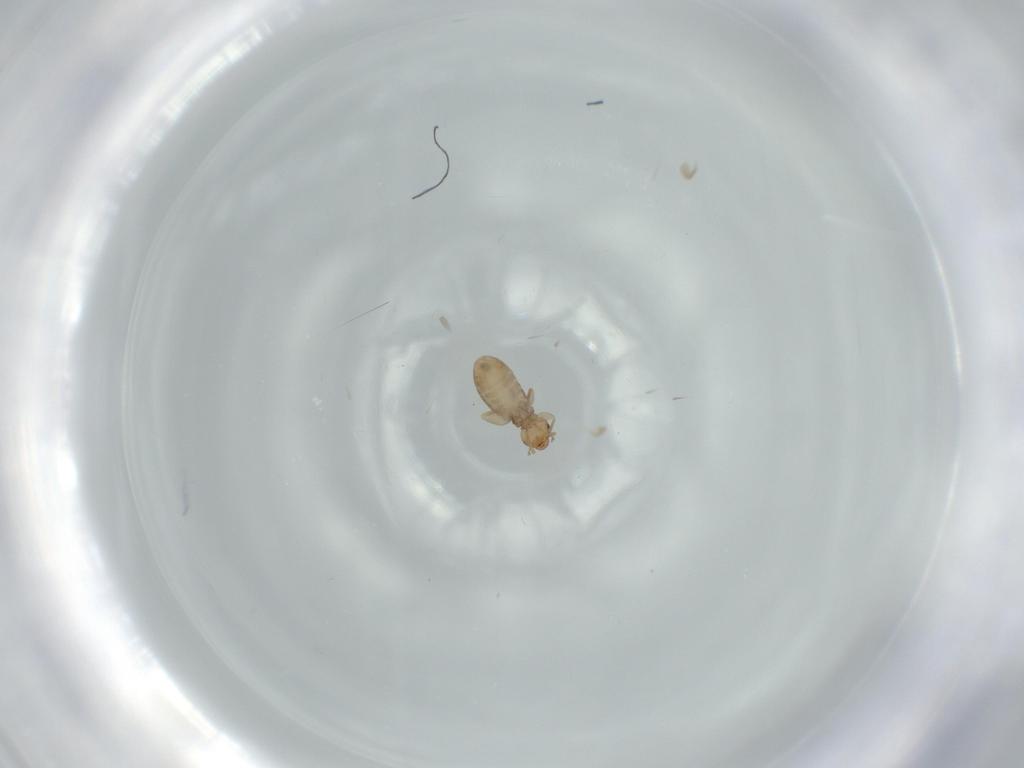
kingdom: Animalia
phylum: Arthropoda
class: Insecta
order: Psocodea
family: Liposcelididae
